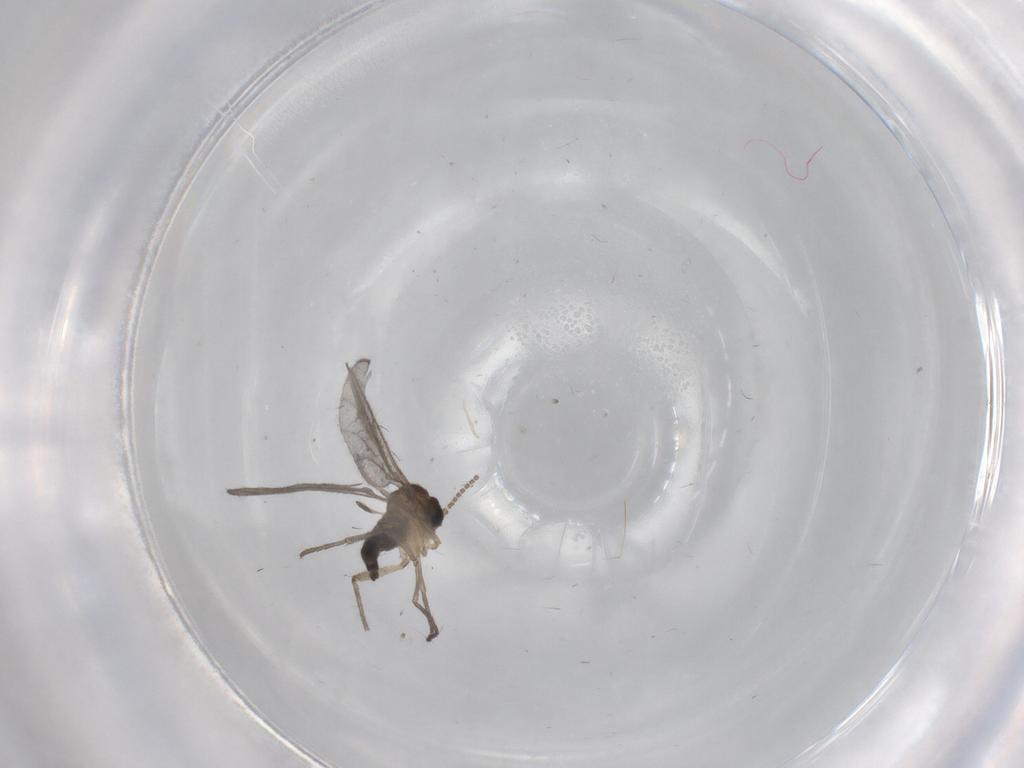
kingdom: Animalia
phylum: Arthropoda
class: Insecta
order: Diptera
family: Sciaridae
